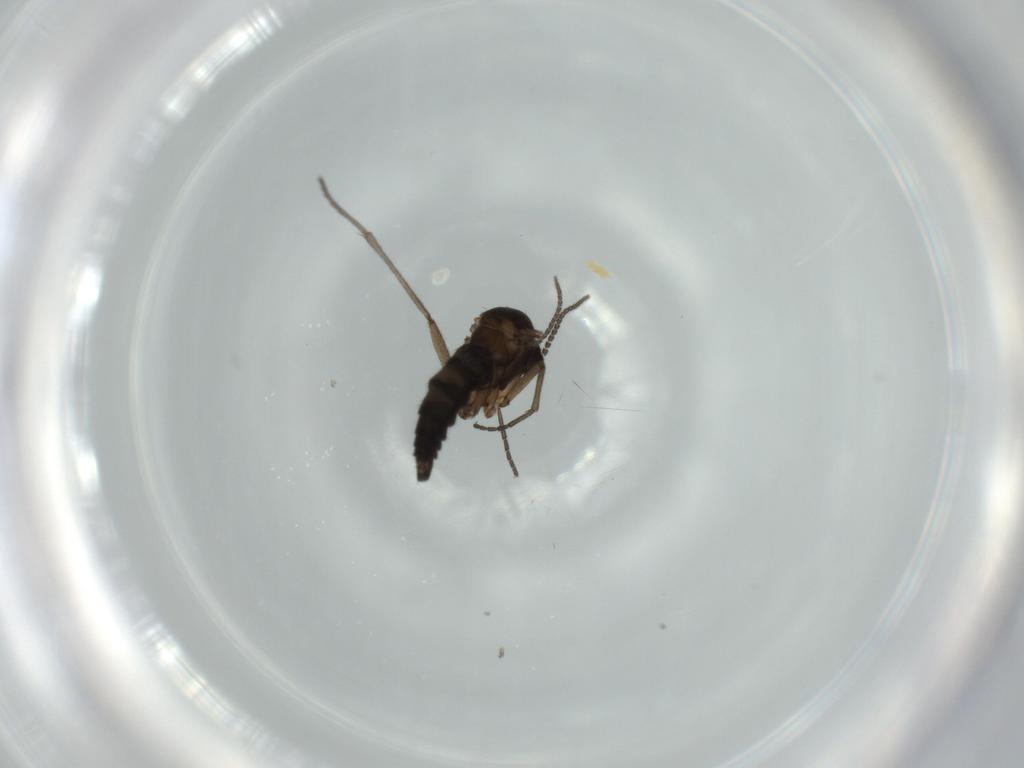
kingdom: Animalia
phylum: Arthropoda
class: Insecta
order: Diptera
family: Sciaridae
